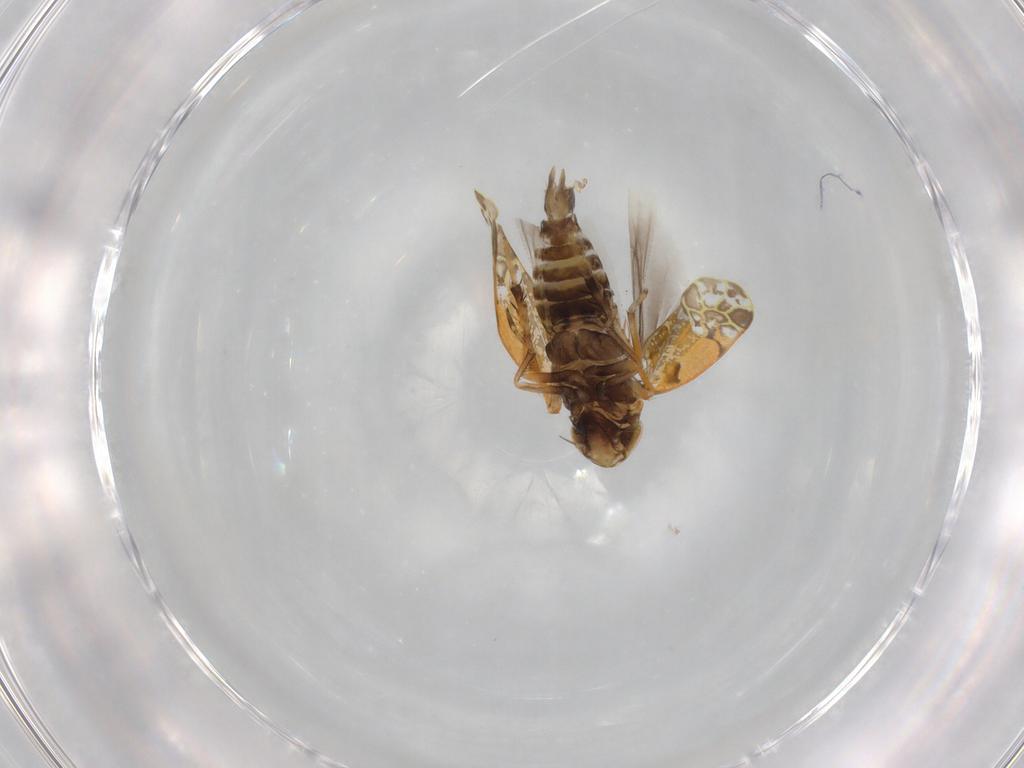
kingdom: Animalia
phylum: Arthropoda
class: Insecta
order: Hemiptera
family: Cicadellidae
